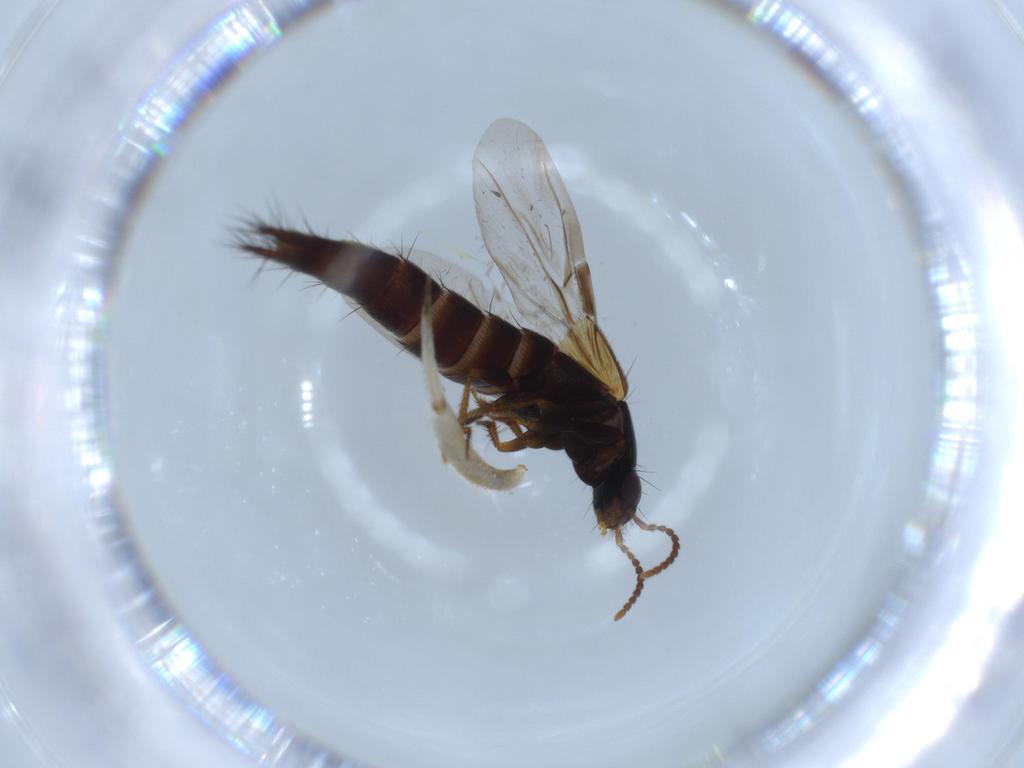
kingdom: Animalia
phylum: Arthropoda
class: Insecta
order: Coleoptera
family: Staphylinidae
